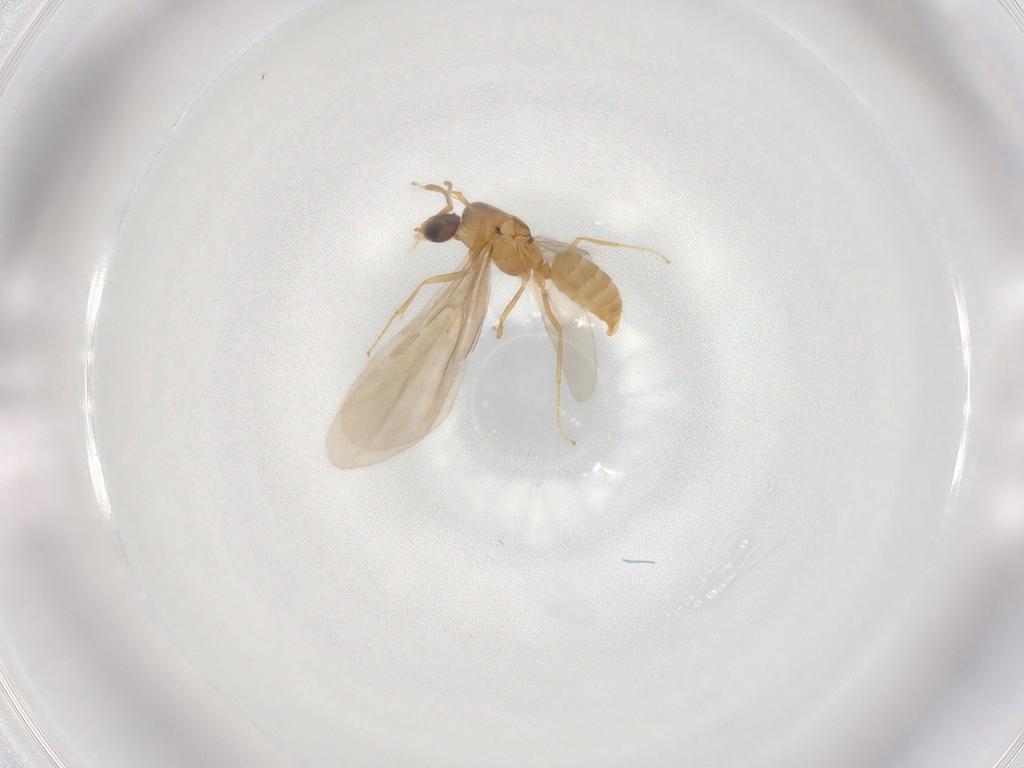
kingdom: Animalia
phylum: Arthropoda
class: Insecta
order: Hymenoptera
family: Formicidae
